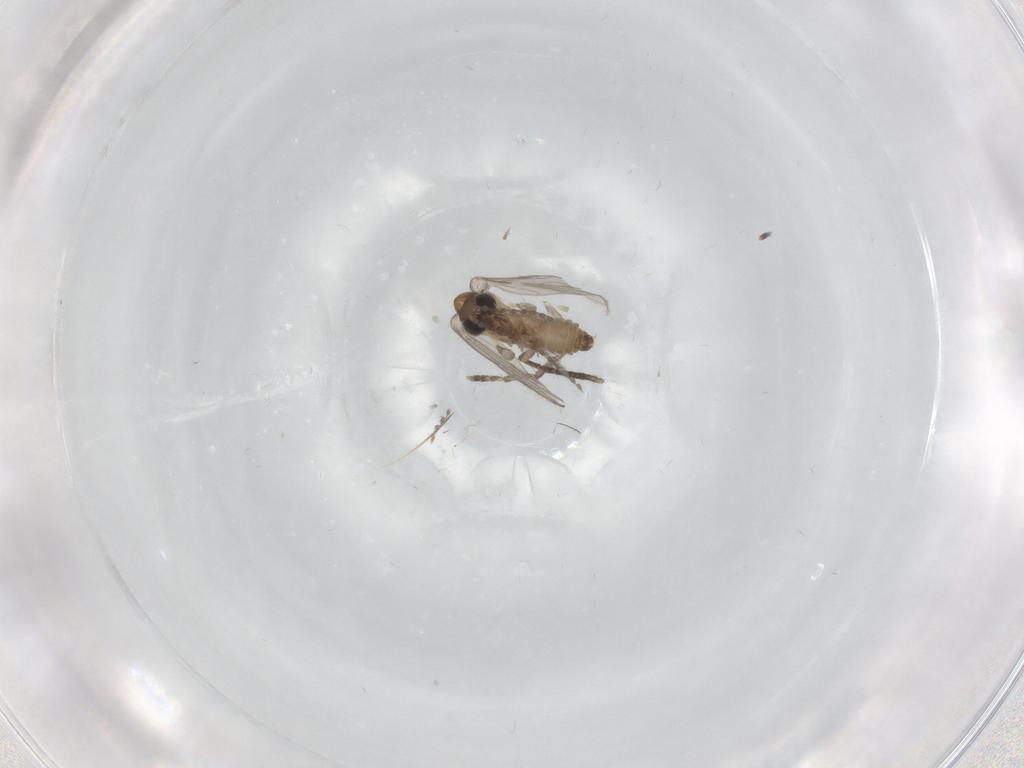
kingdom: Animalia
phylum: Arthropoda
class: Insecta
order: Diptera
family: Psychodidae
